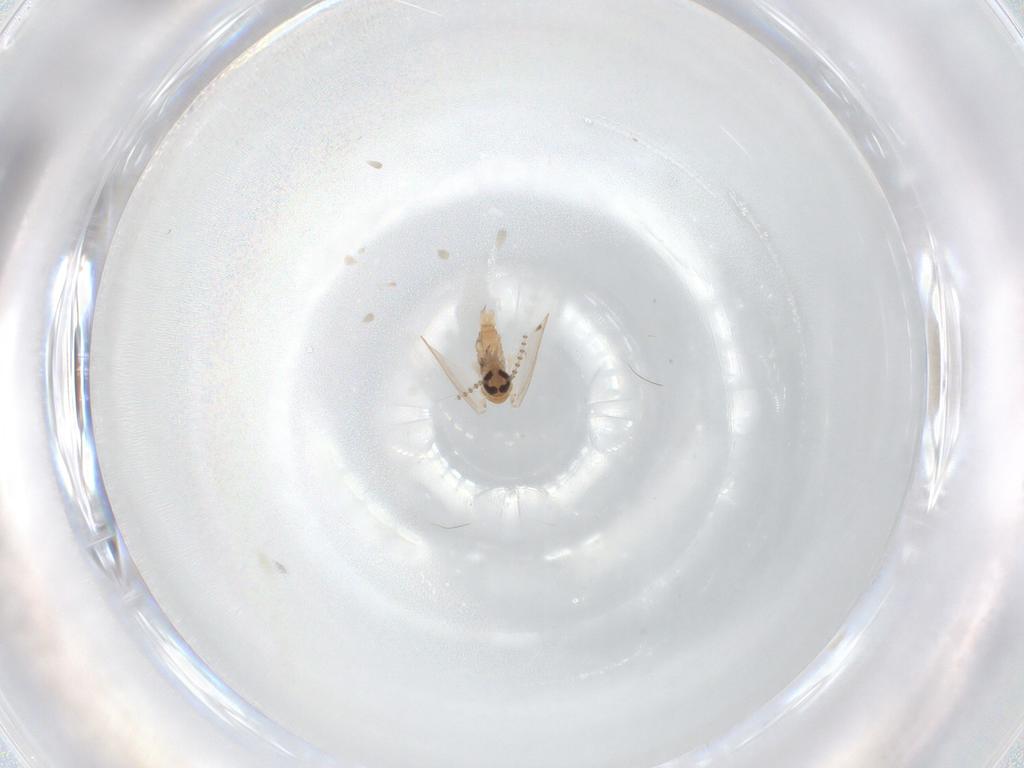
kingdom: Animalia
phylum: Arthropoda
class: Insecta
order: Diptera
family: Psychodidae
